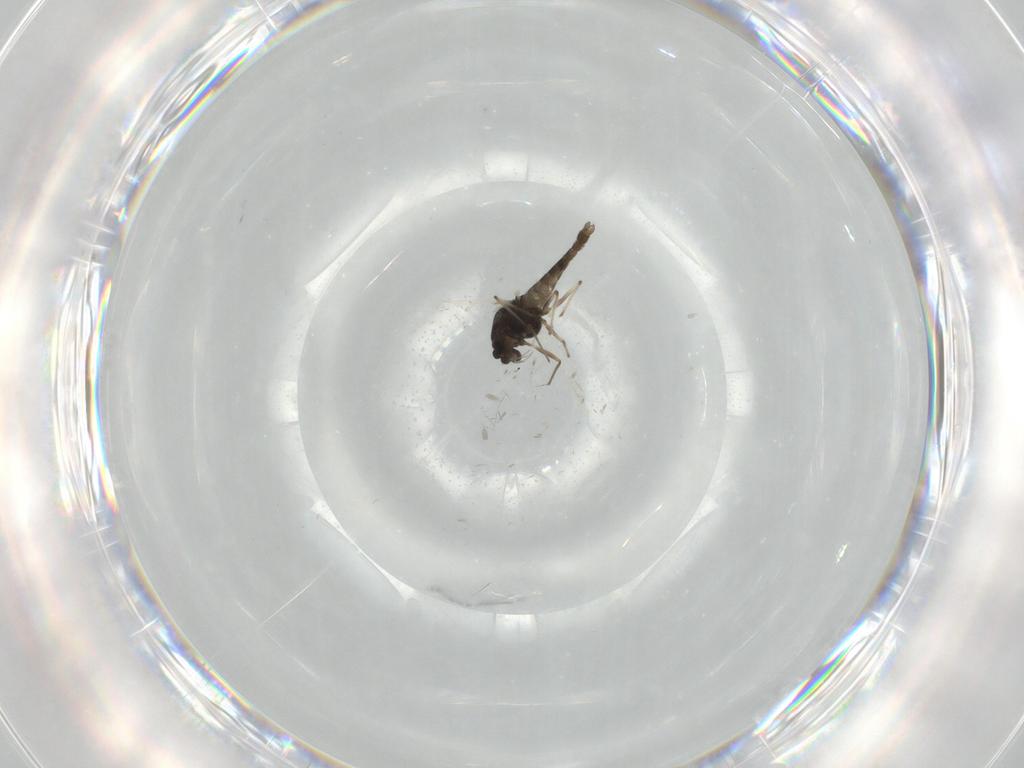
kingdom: Animalia
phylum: Arthropoda
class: Insecta
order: Diptera
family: Chironomidae
